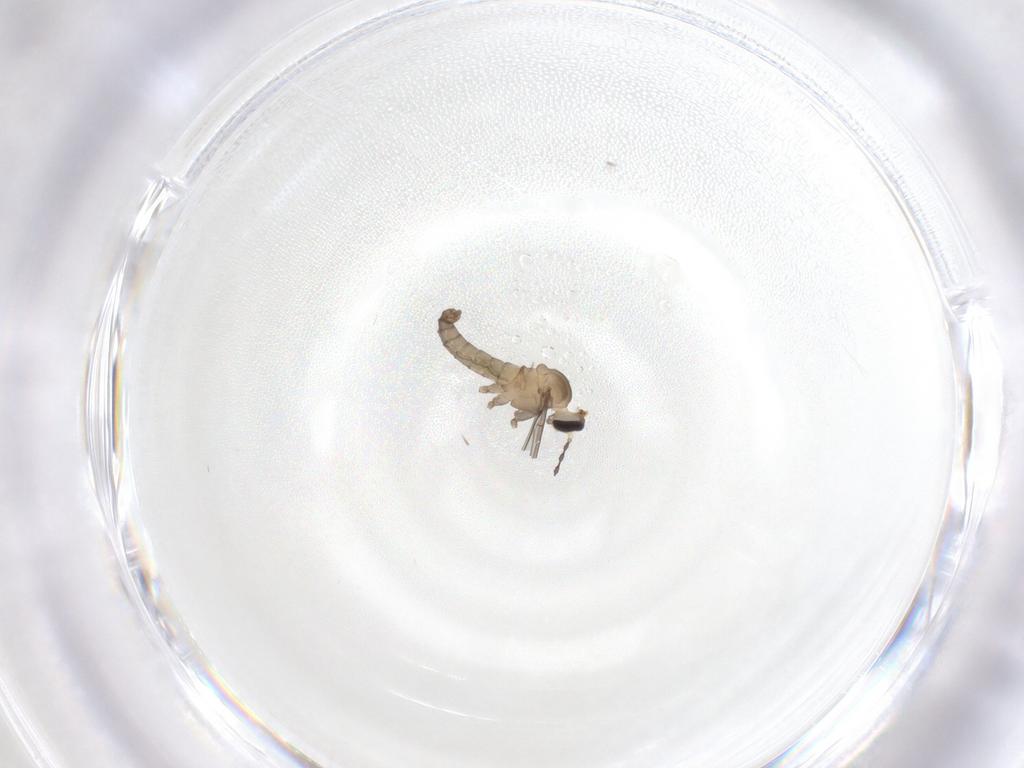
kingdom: Animalia
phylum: Arthropoda
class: Insecta
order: Diptera
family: Cecidomyiidae
